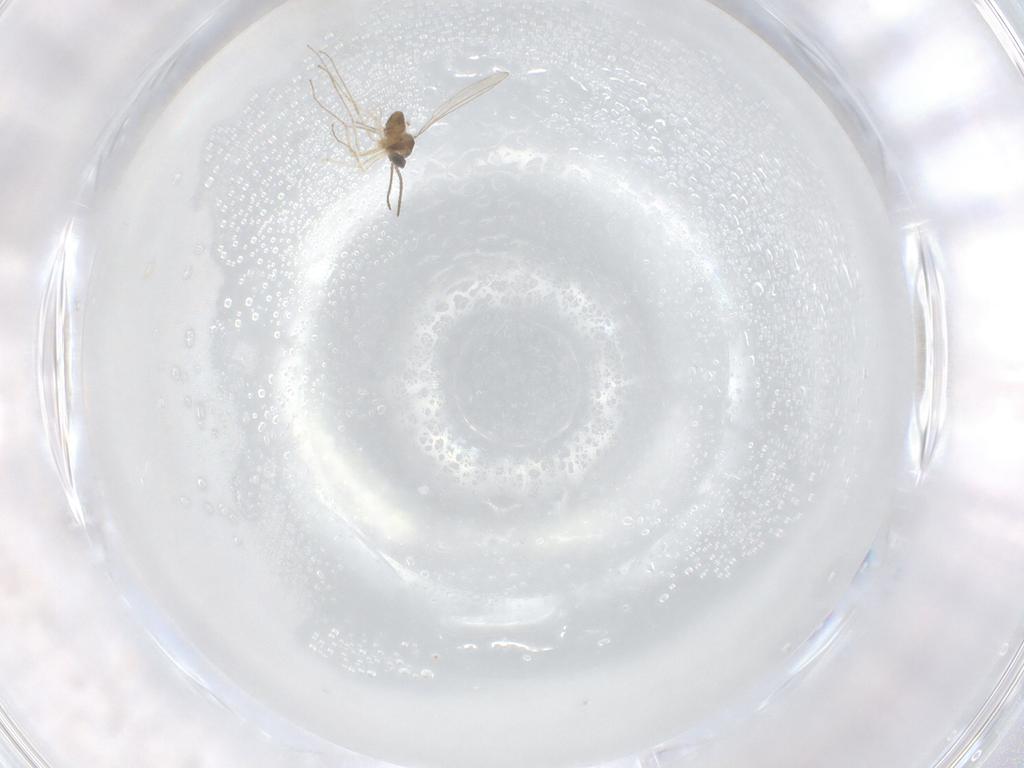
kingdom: Animalia
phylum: Arthropoda
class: Insecta
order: Diptera
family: Cecidomyiidae
